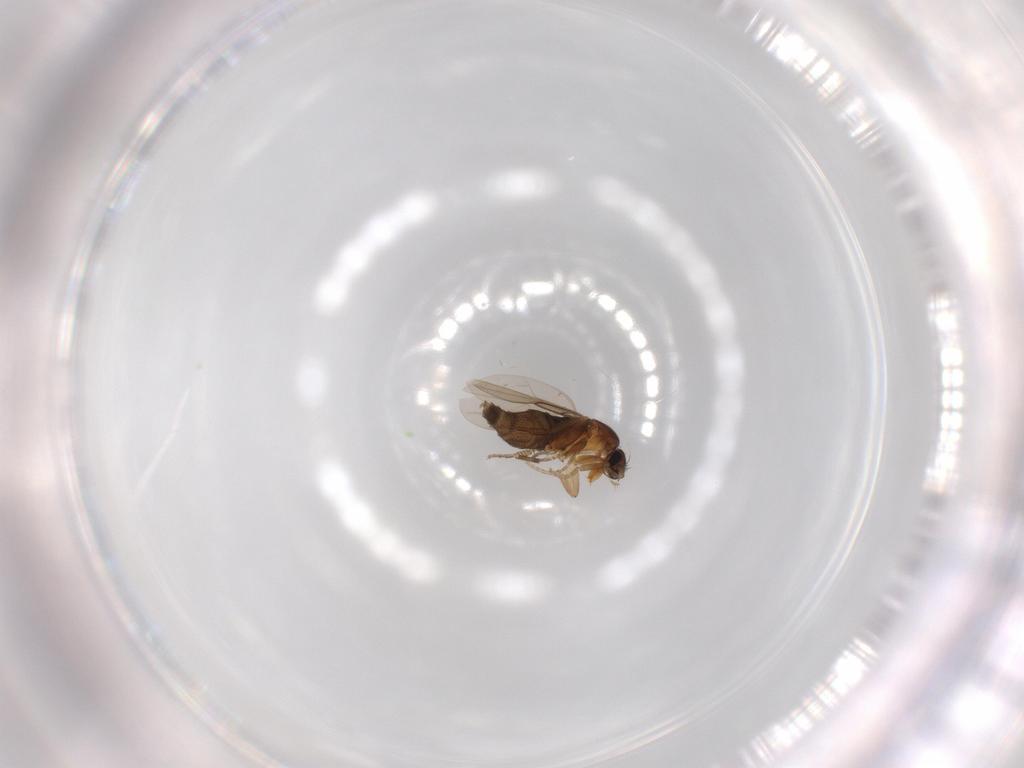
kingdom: Animalia
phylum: Arthropoda
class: Insecta
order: Diptera
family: Phoridae
